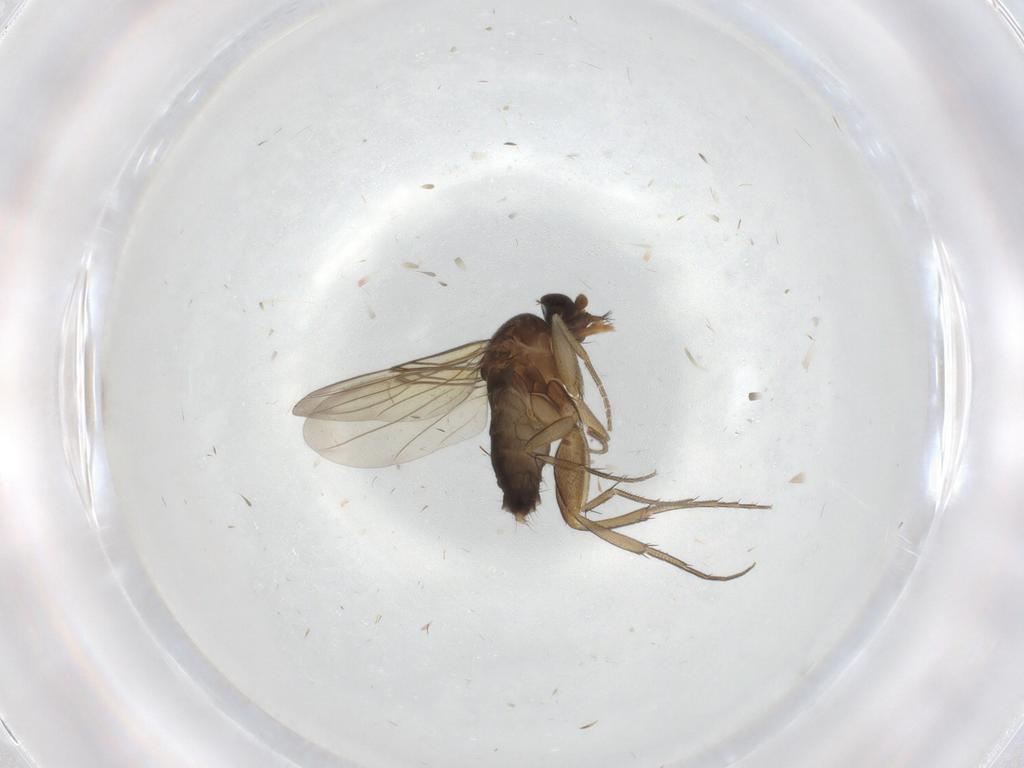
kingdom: Animalia
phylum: Arthropoda
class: Insecta
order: Diptera
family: Phoridae
